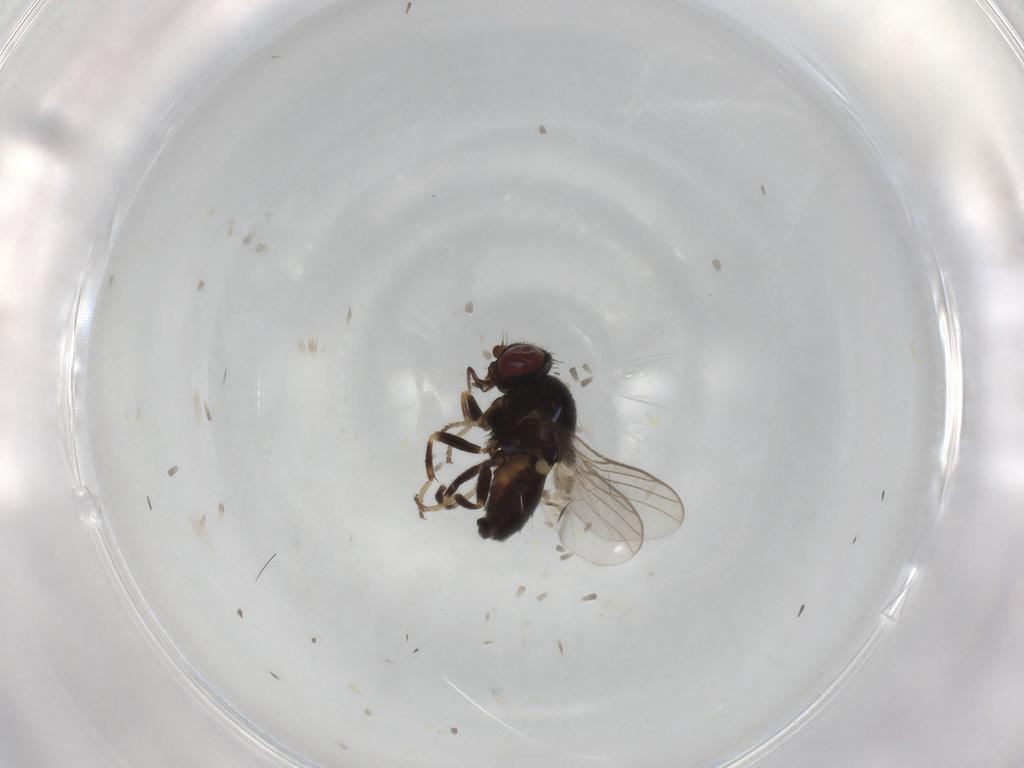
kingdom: Animalia
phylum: Arthropoda
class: Insecta
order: Diptera
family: Chloropidae
